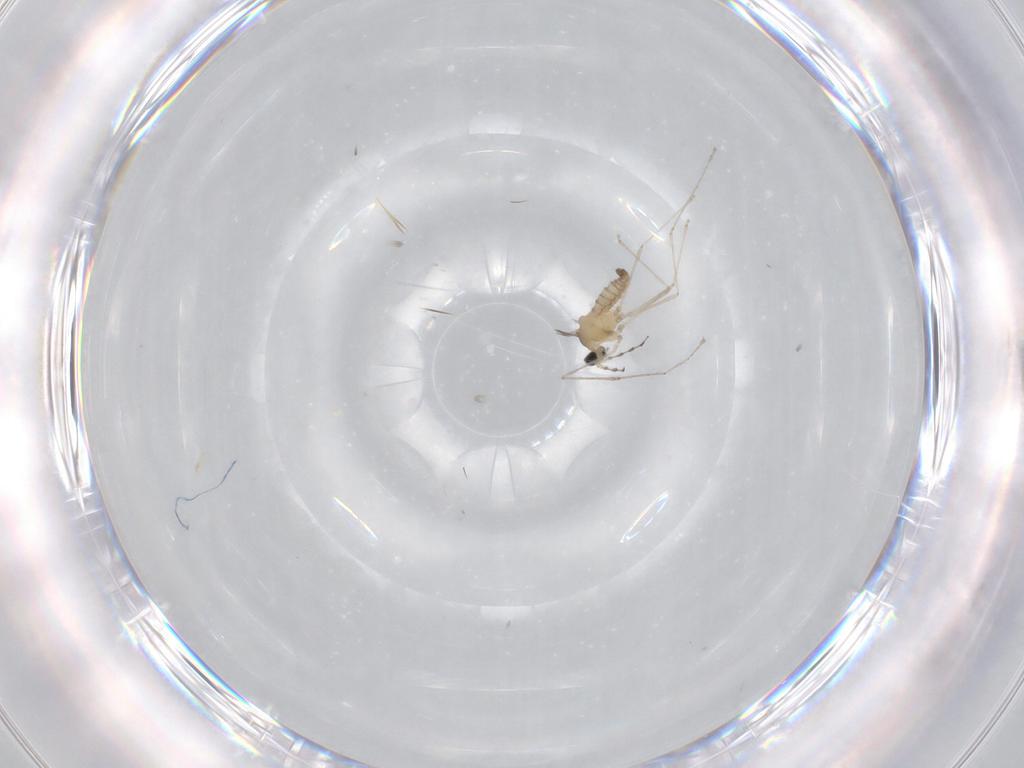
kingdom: Animalia
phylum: Arthropoda
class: Insecta
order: Diptera
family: Cecidomyiidae
